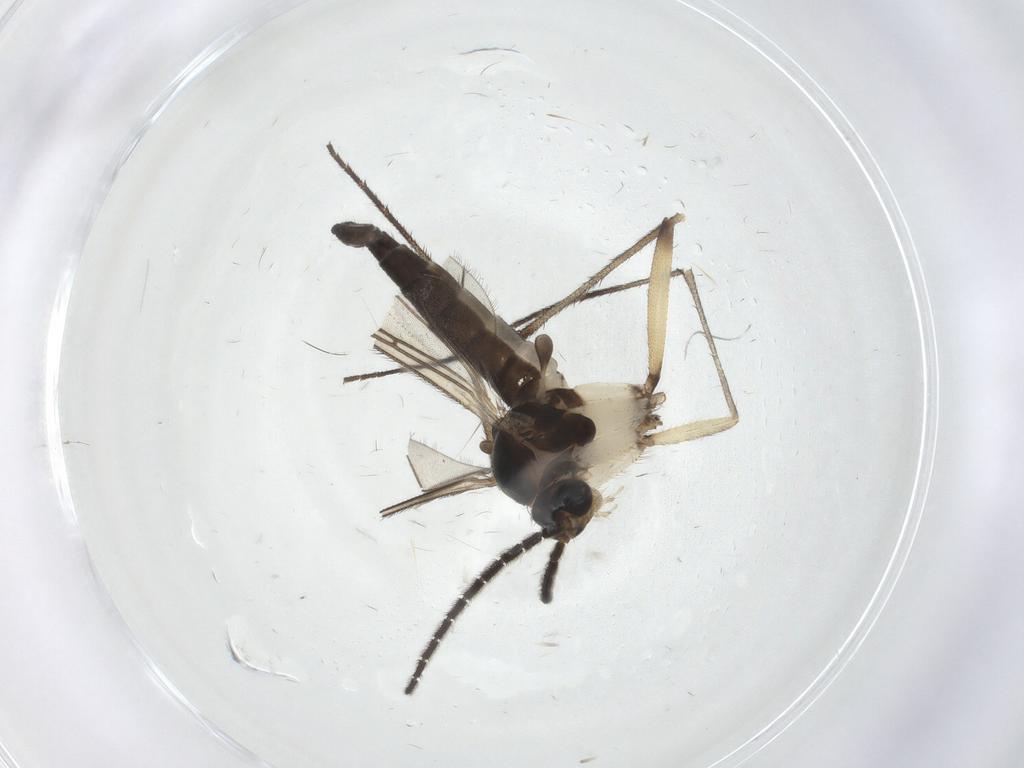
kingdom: Animalia
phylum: Arthropoda
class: Insecta
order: Diptera
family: Sciaridae
